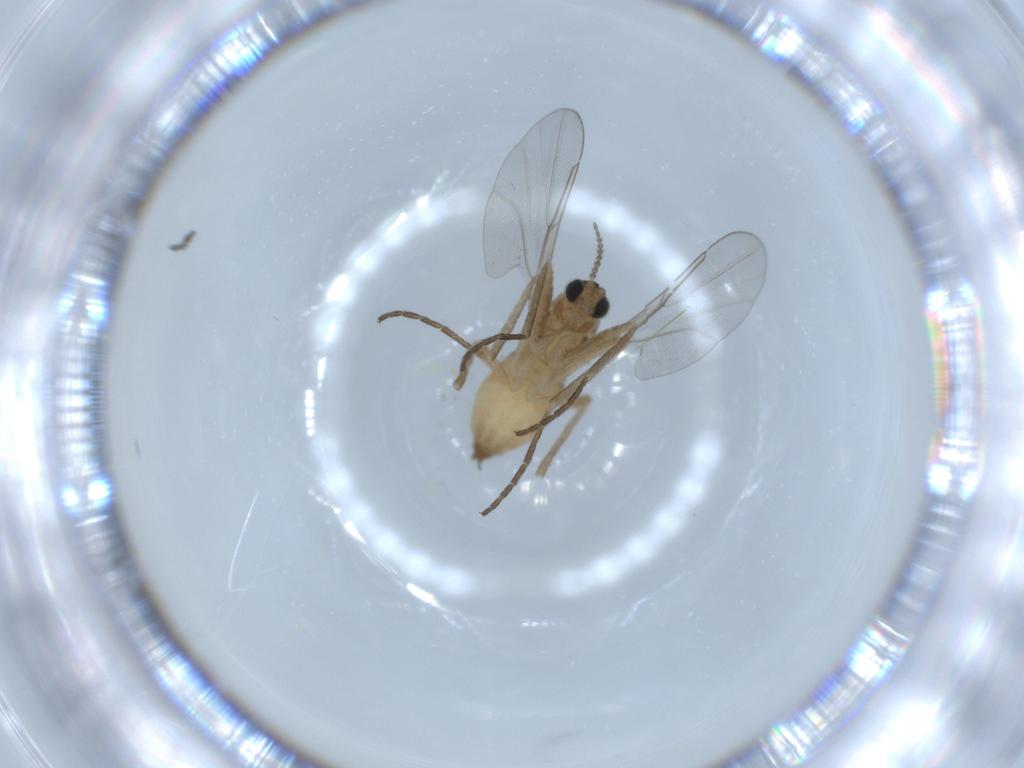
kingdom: Animalia
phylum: Arthropoda
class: Insecta
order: Diptera
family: Cecidomyiidae
